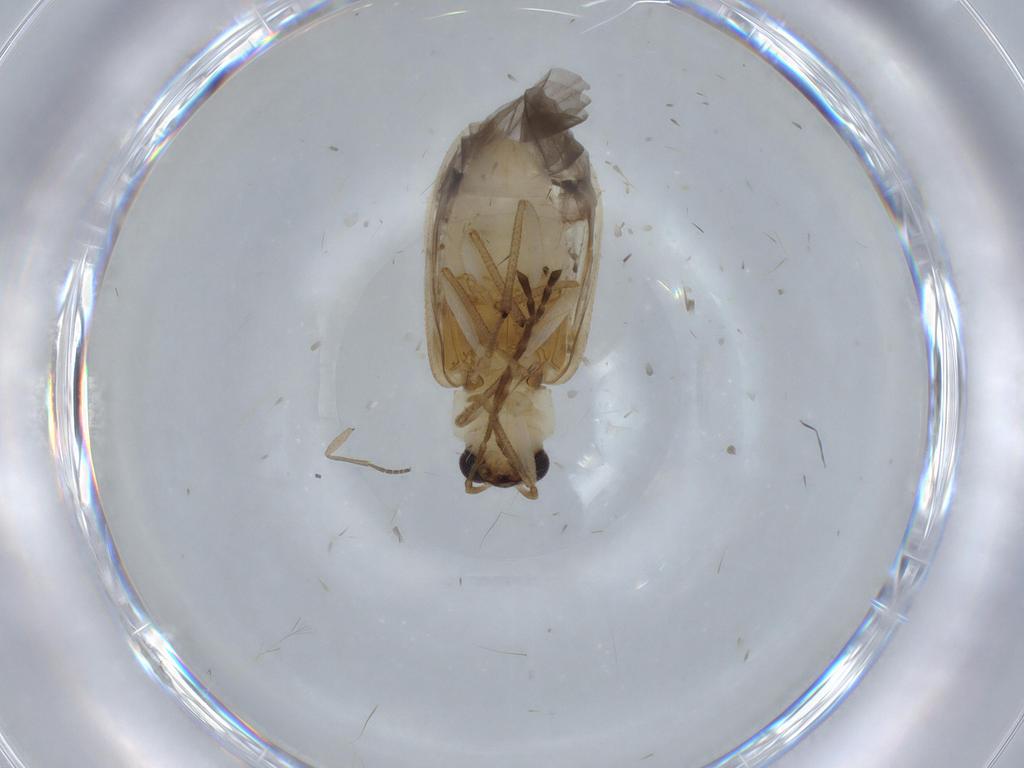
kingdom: Animalia
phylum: Arthropoda
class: Insecta
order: Coleoptera
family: Chrysomelidae
